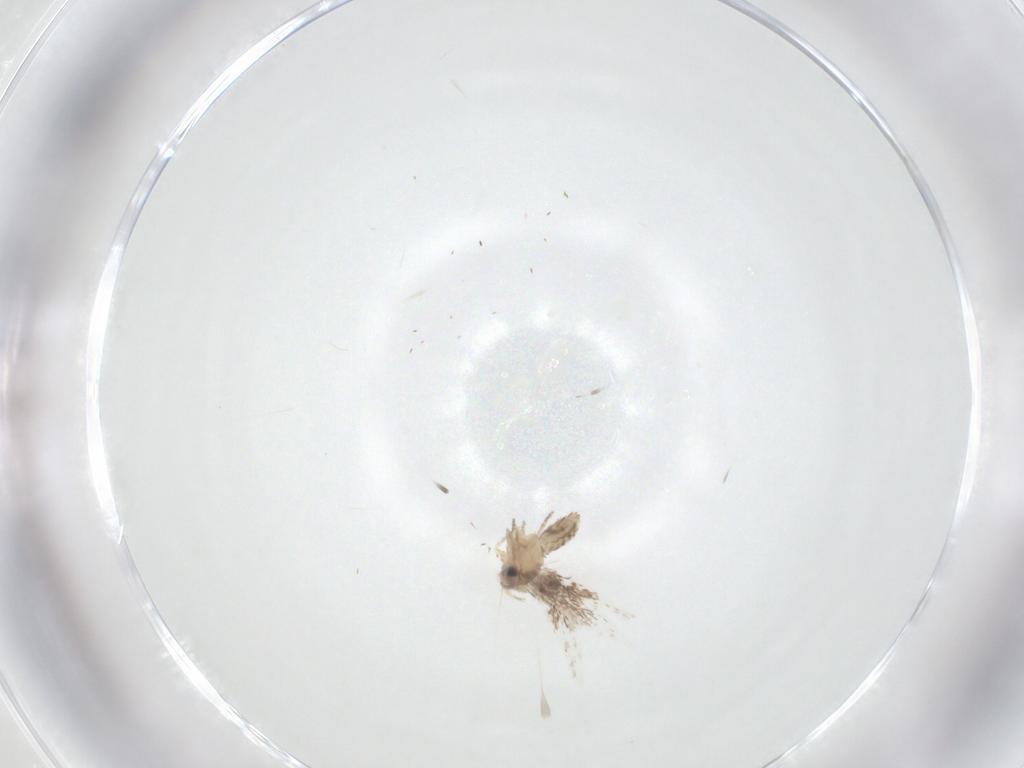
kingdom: Animalia
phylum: Arthropoda
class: Insecta
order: Lepidoptera
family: Nepticulidae
